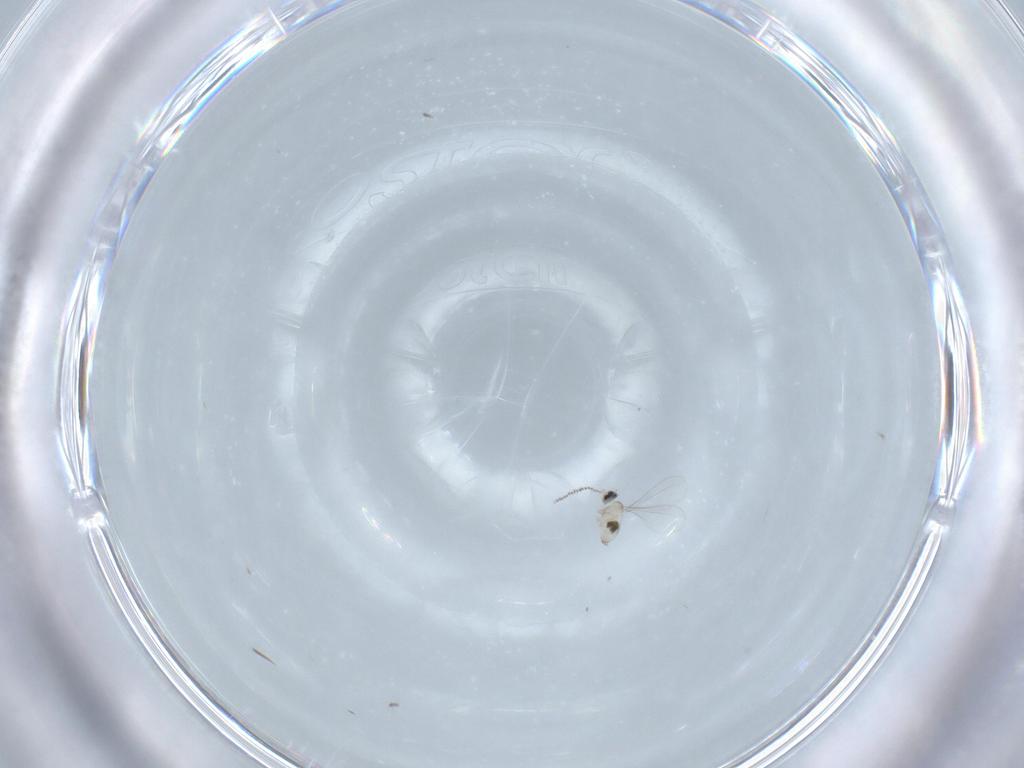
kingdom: Animalia
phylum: Arthropoda
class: Insecta
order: Diptera
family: Psychodidae
